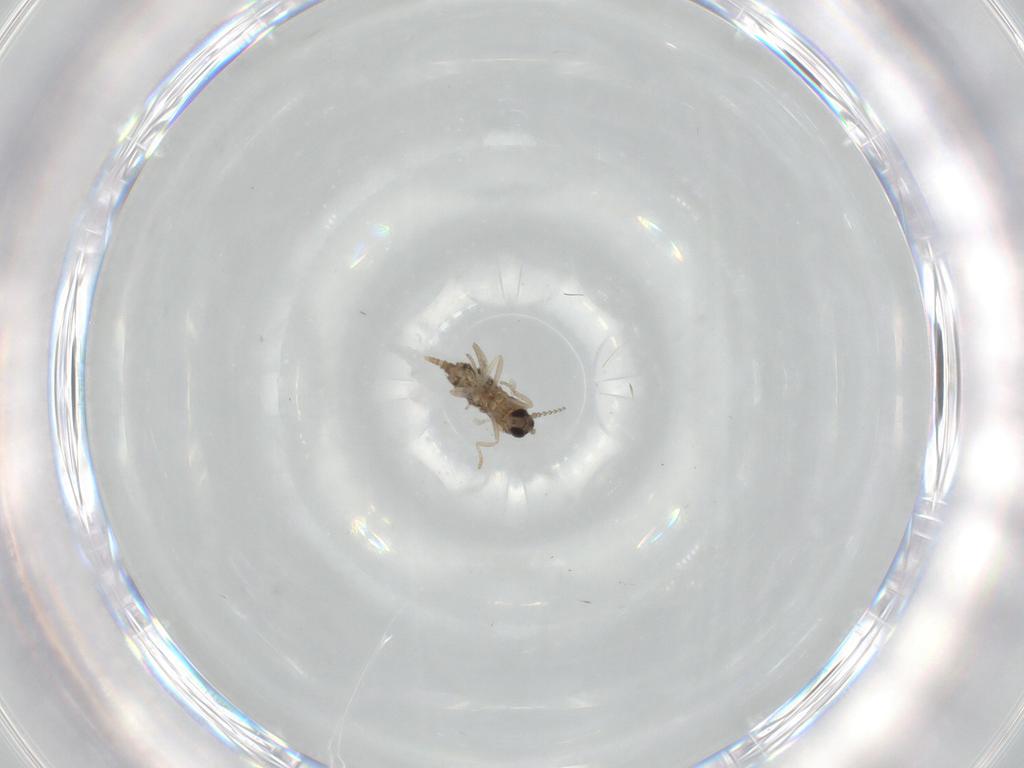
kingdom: Animalia
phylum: Arthropoda
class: Insecta
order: Diptera
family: Cecidomyiidae
